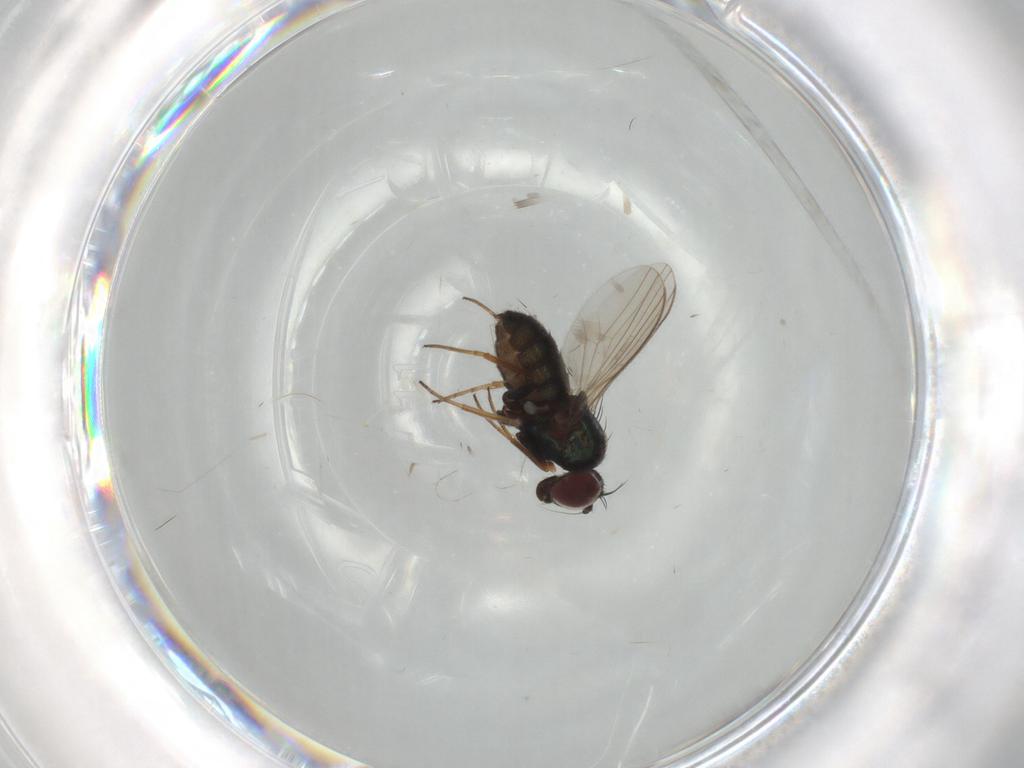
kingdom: Animalia
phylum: Arthropoda
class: Insecta
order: Diptera
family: Dolichopodidae
